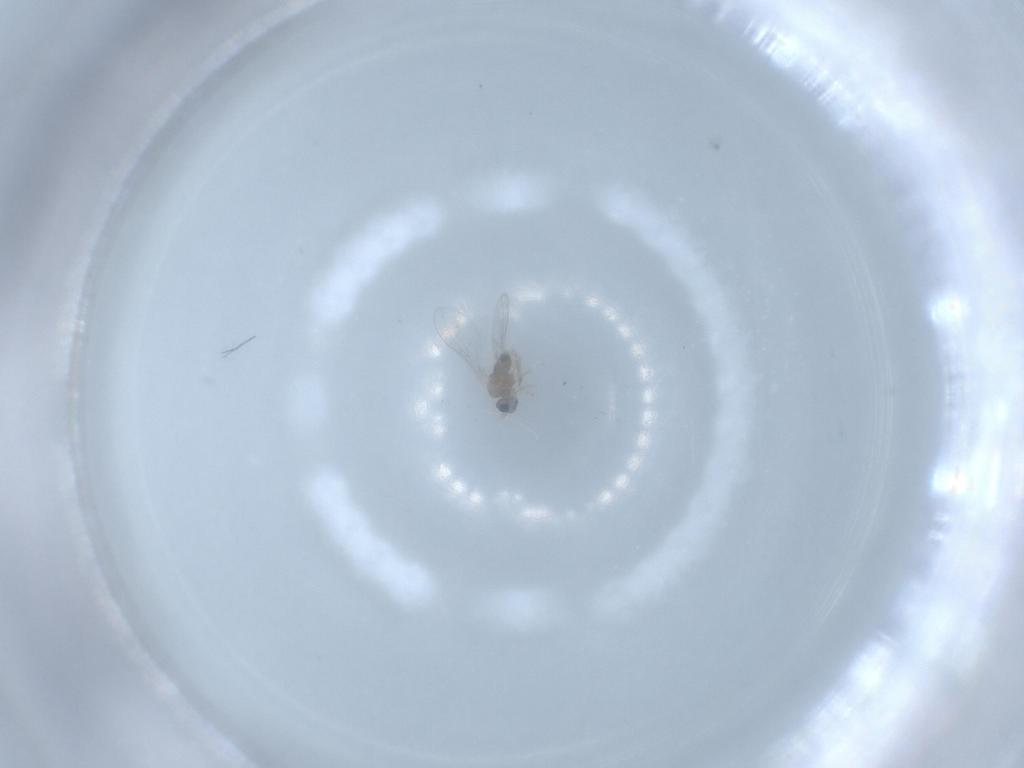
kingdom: Animalia
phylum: Arthropoda
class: Insecta
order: Diptera
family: Cecidomyiidae
